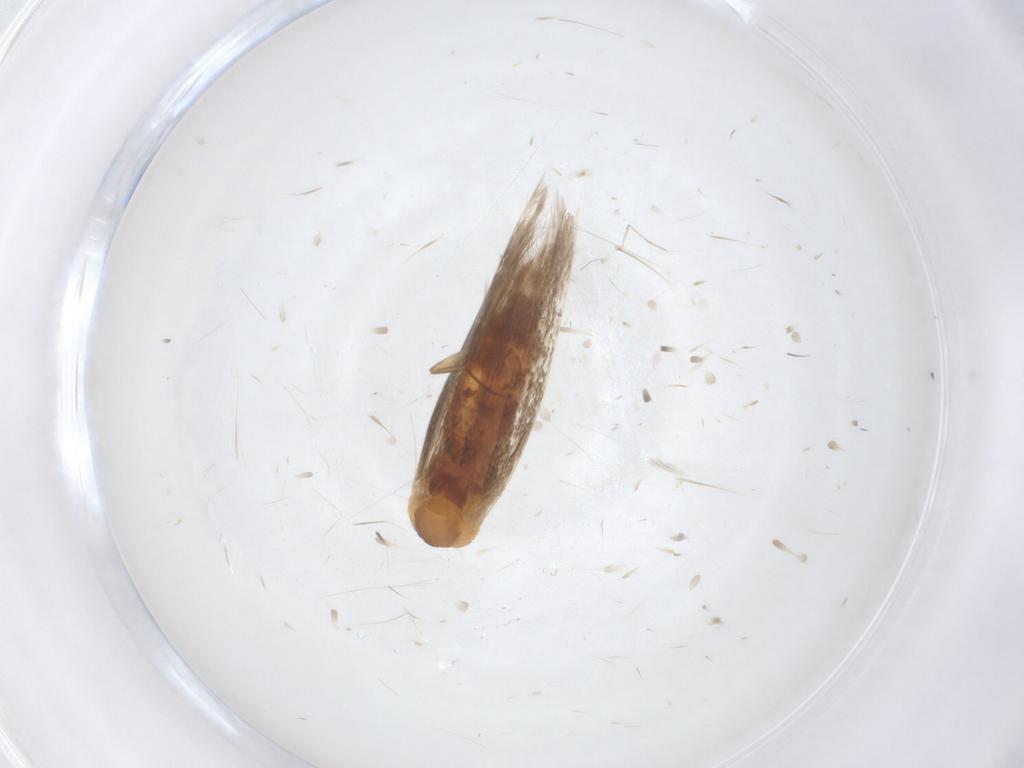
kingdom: Animalia
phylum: Arthropoda
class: Insecta
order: Lepidoptera
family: Gracillariidae
